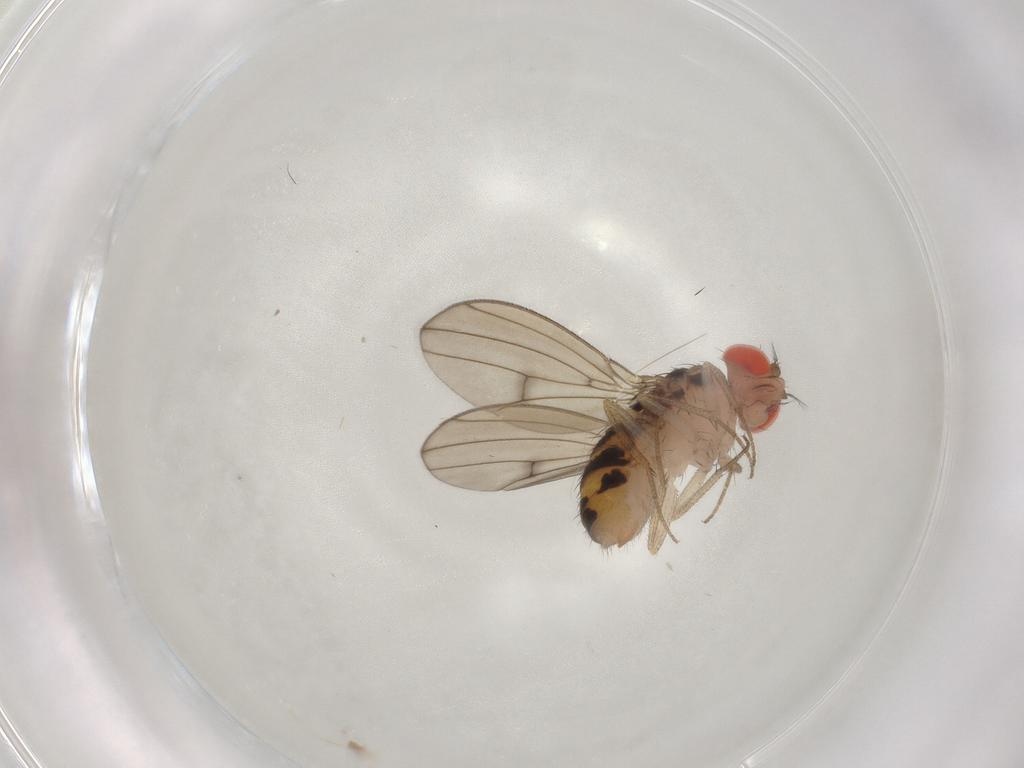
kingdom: Animalia
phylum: Arthropoda
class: Insecta
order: Diptera
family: Drosophilidae
